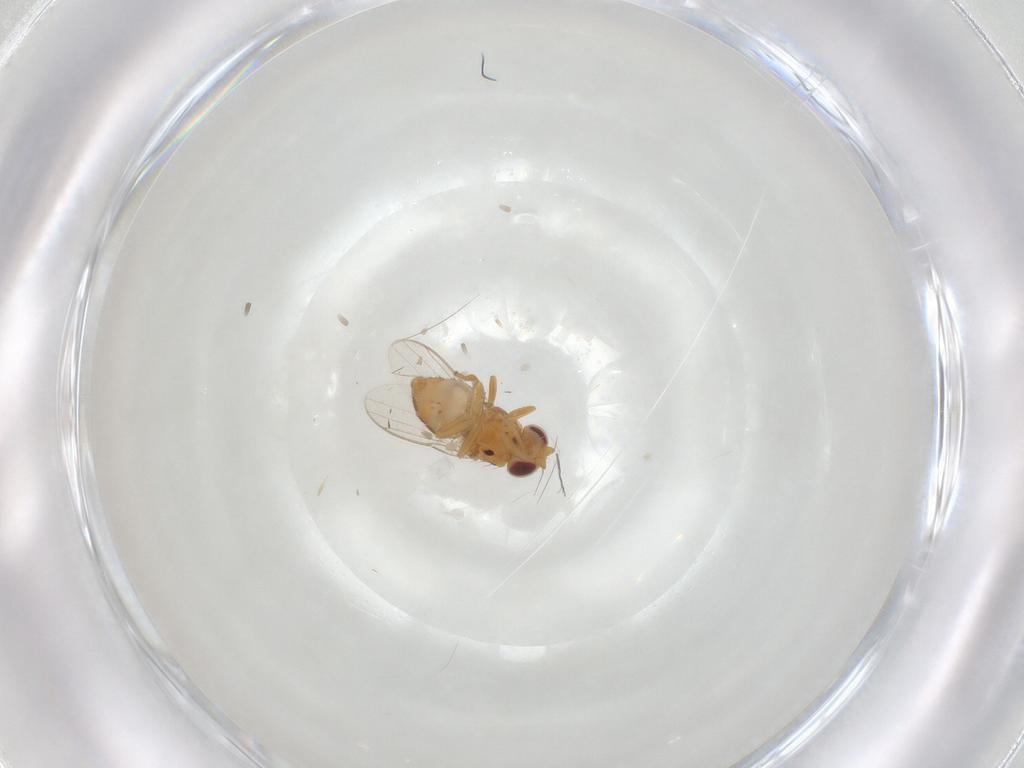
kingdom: Animalia
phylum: Arthropoda
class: Insecta
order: Diptera
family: Chloropidae
